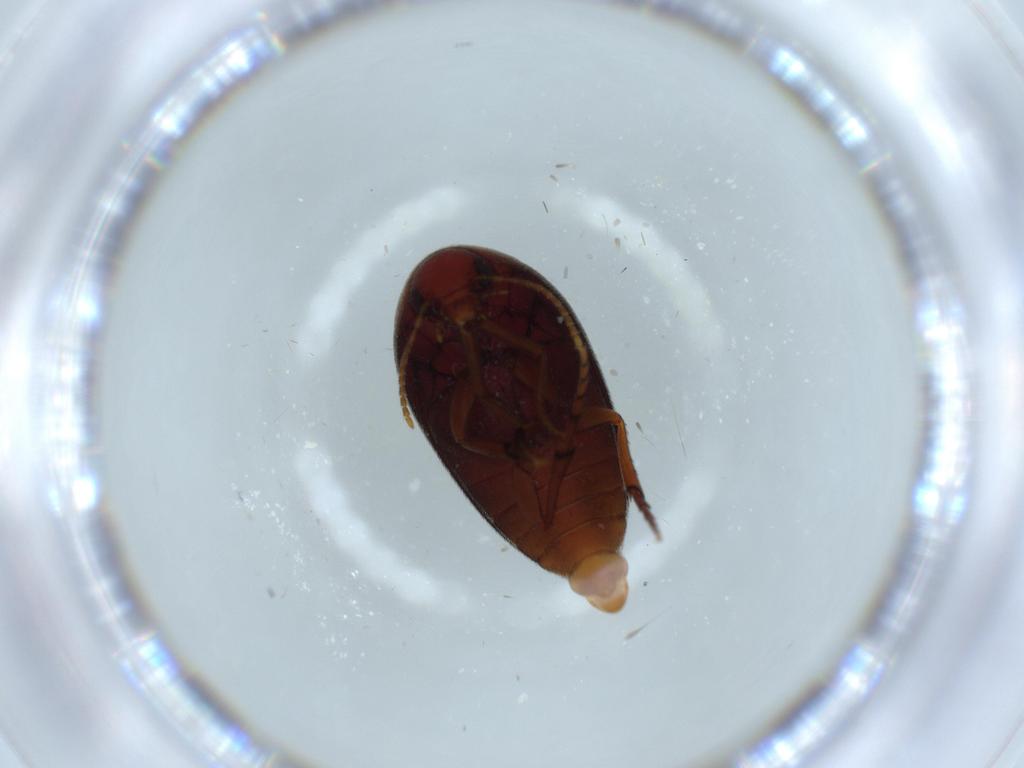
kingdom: Animalia
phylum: Arthropoda
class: Insecta
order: Coleoptera
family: Eucinetidae
